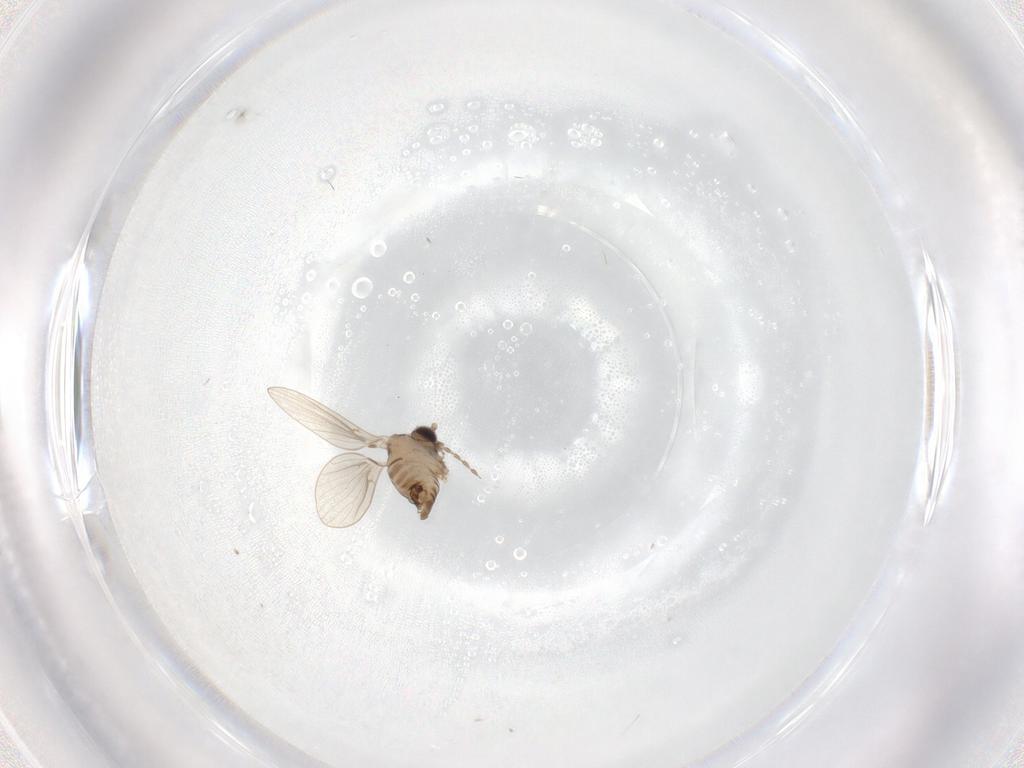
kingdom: Animalia
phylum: Arthropoda
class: Insecta
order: Diptera
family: Psychodidae
